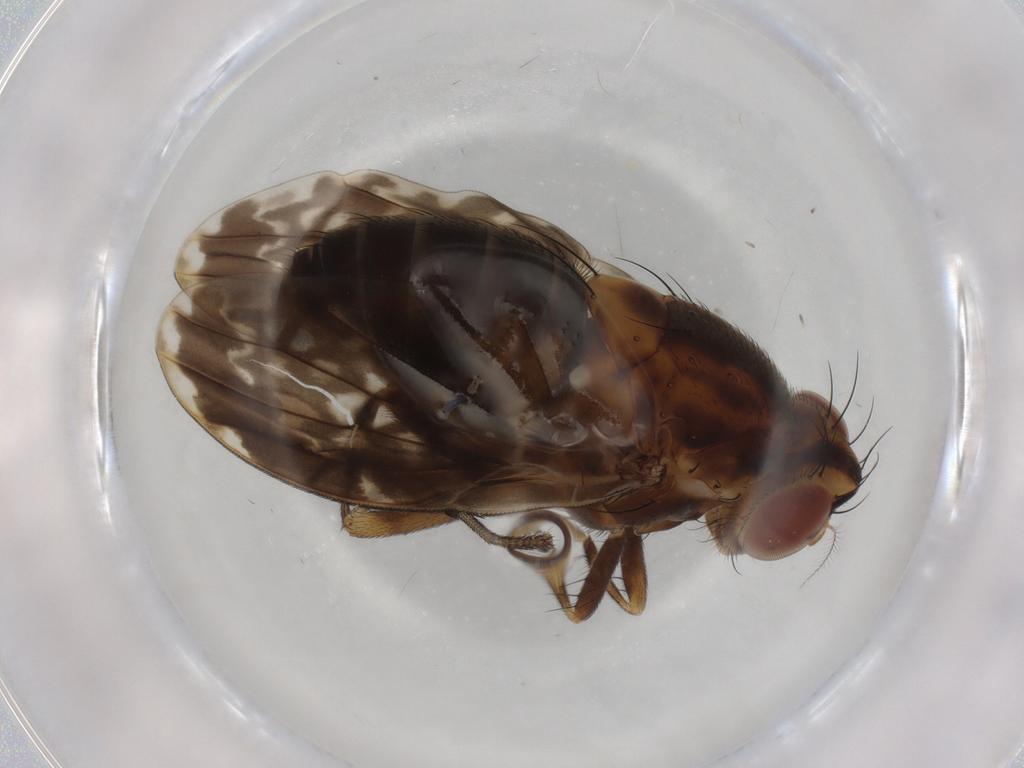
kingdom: Animalia
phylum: Arthropoda
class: Insecta
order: Diptera
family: Lauxaniidae
